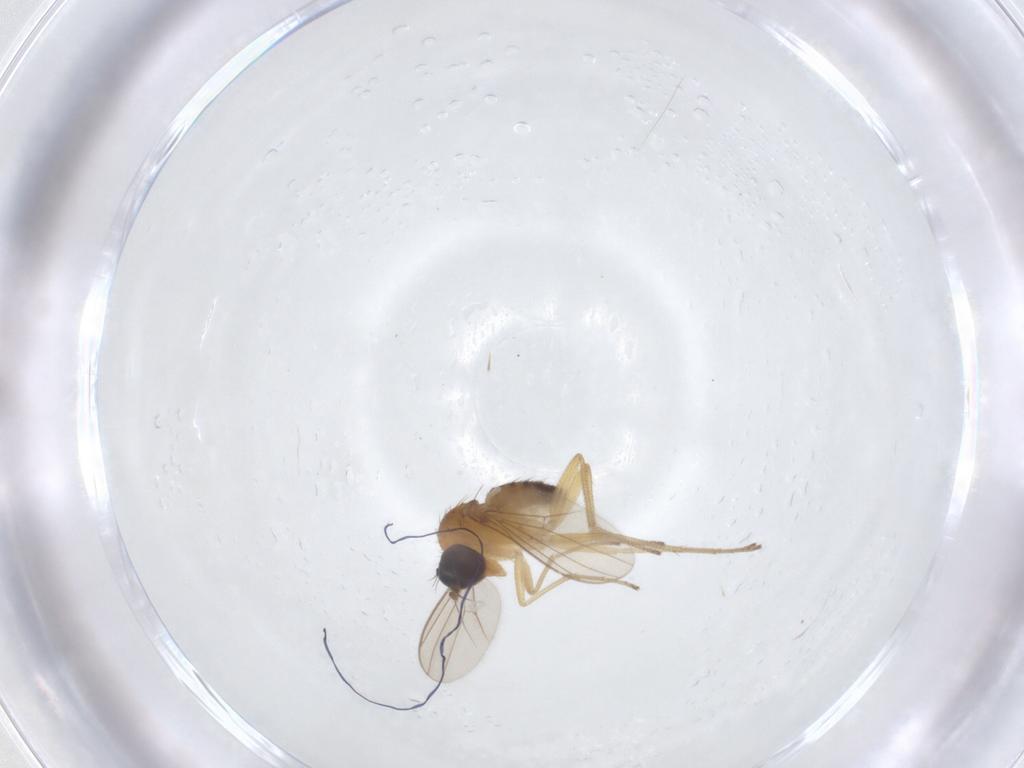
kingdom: Animalia
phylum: Arthropoda
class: Insecta
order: Diptera
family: Dolichopodidae
